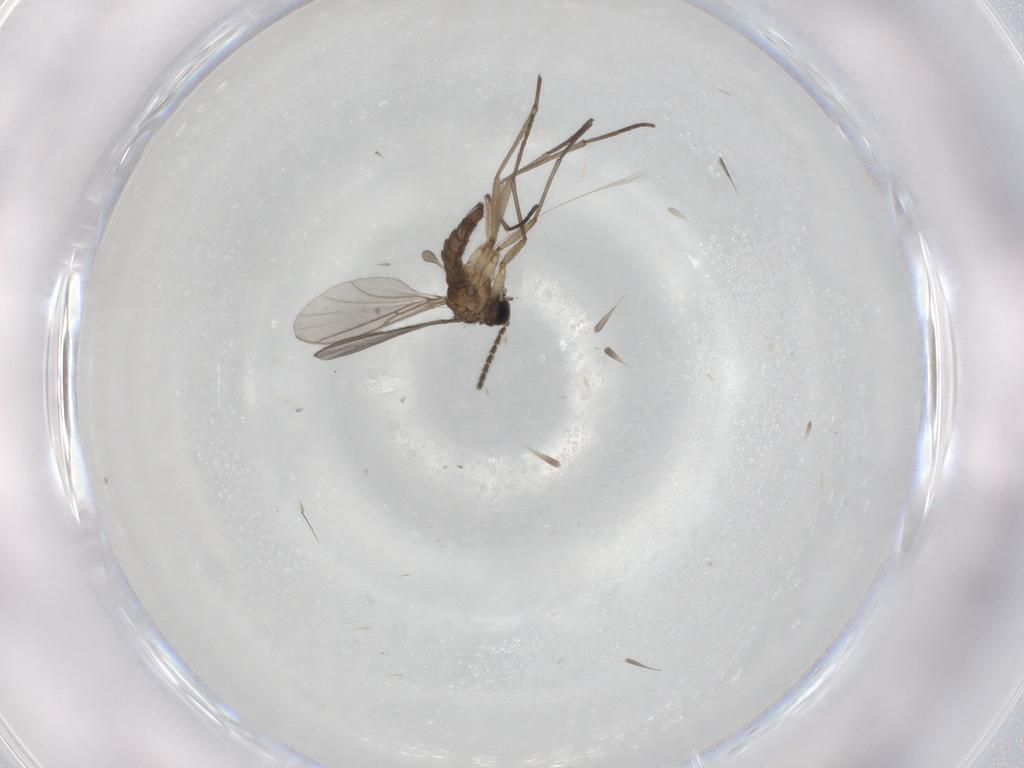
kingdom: Animalia
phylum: Arthropoda
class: Insecta
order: Diptera
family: Sciaridae
